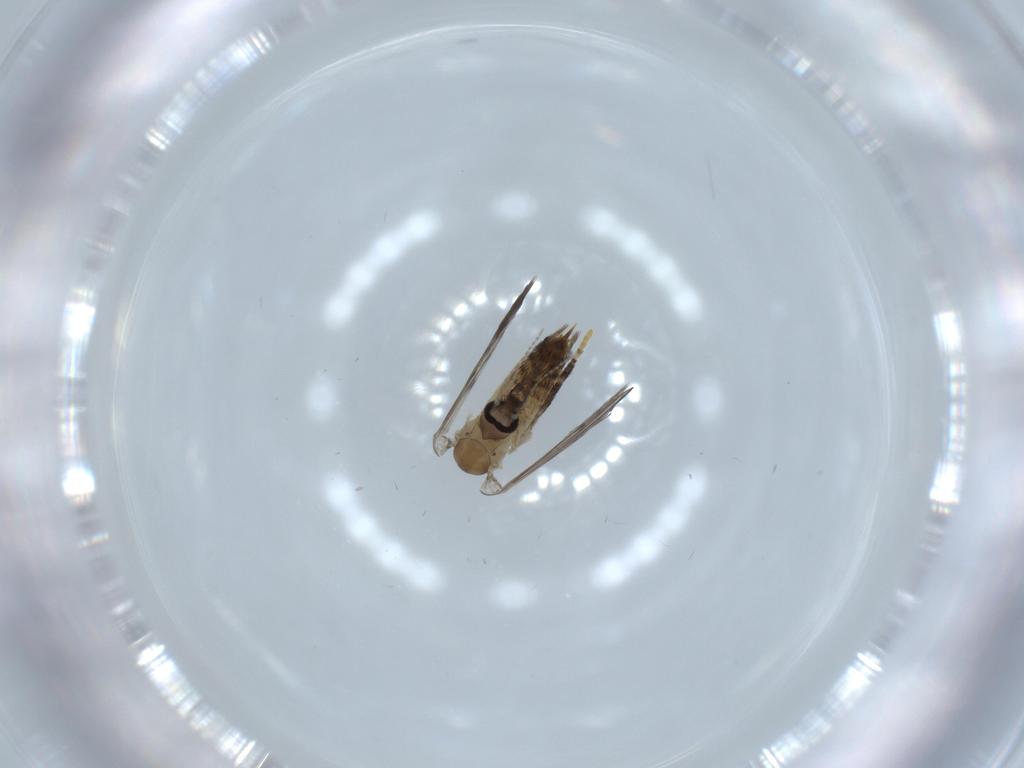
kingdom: Animalia
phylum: Arthropoda
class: Insecta
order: Diptera
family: Psychodidae
